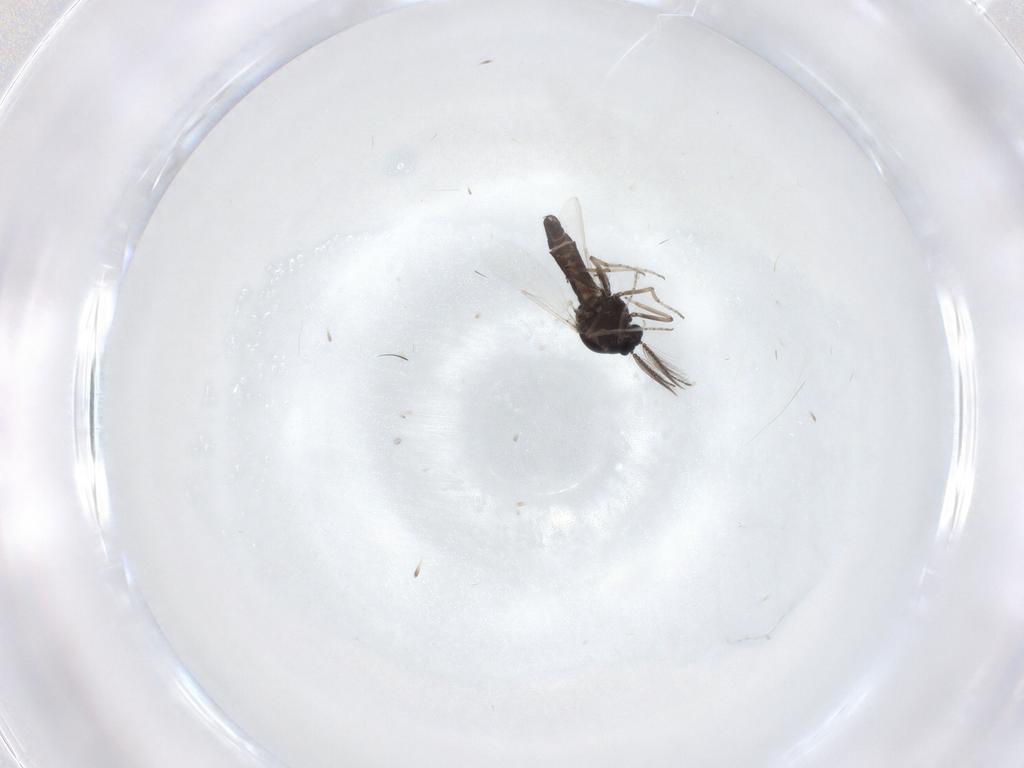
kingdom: Animalia
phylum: Arthropoda
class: Insecta
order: Diptera
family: Ceratopogonidae
